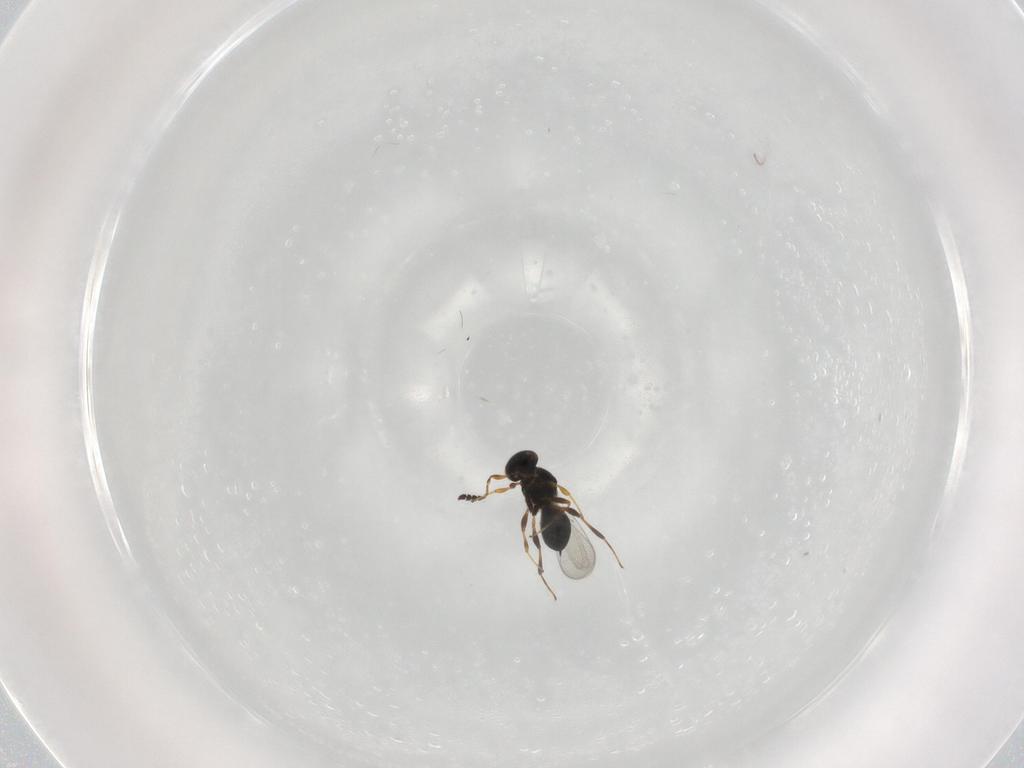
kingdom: Animalia
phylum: Arthropoda
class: Insecta
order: Hymenoptera
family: Platygastridae
